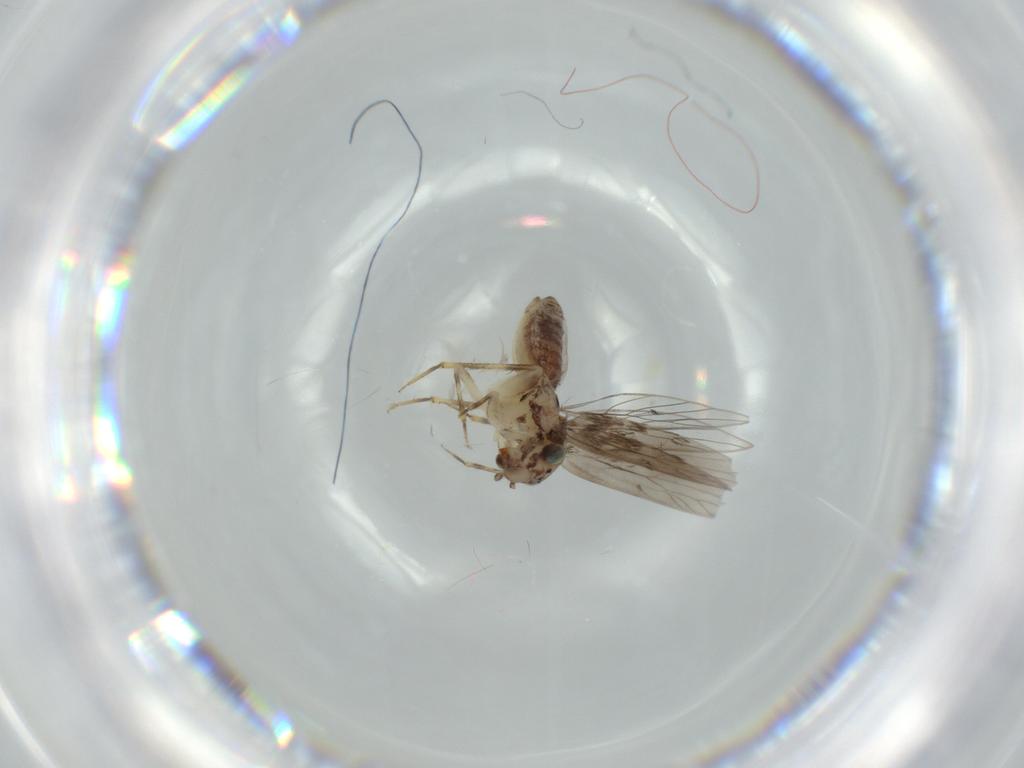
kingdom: Animalia
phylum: Arthropoda
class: Insecta
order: Psocodea
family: Lepidopsocidae
